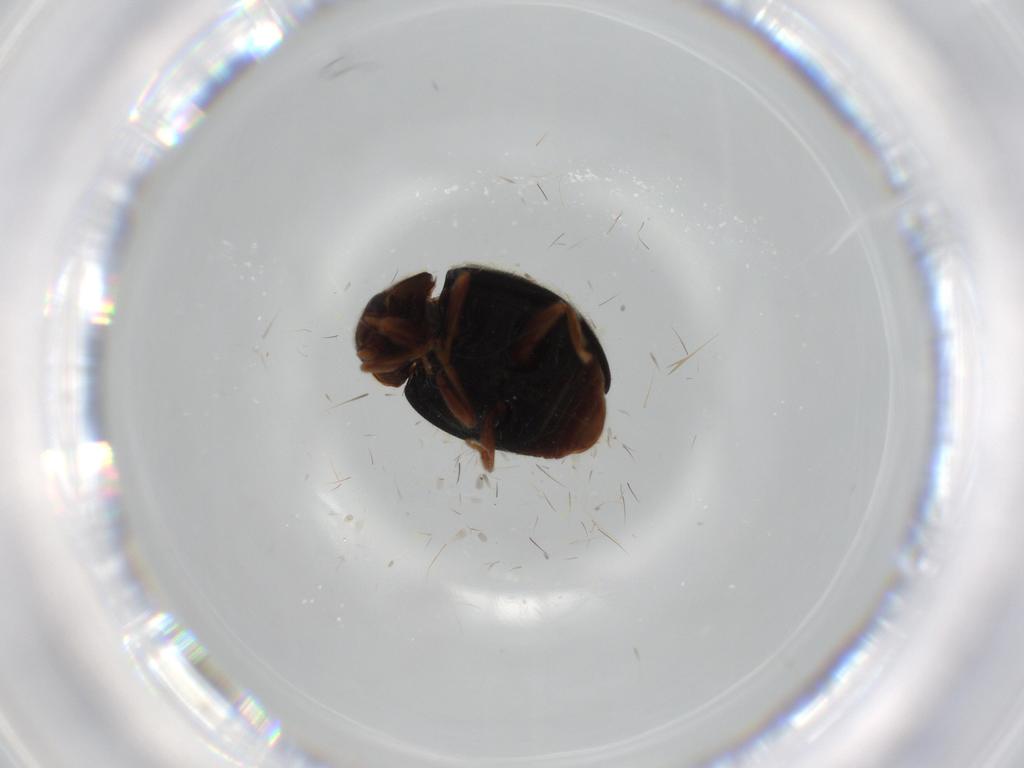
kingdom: Animalia
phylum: Arthropoda
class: Insecta
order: Coleoptera
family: Coccinellidae
